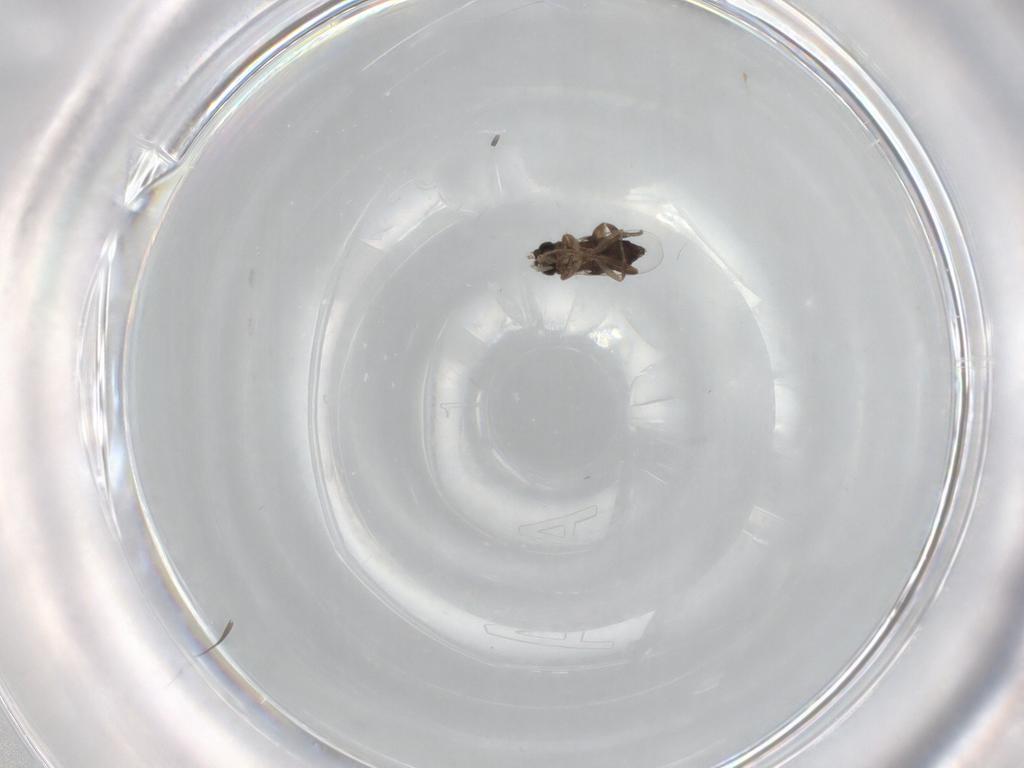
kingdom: Animalia
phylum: Arthropoda
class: Insecta
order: Diptera
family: Phoridae
